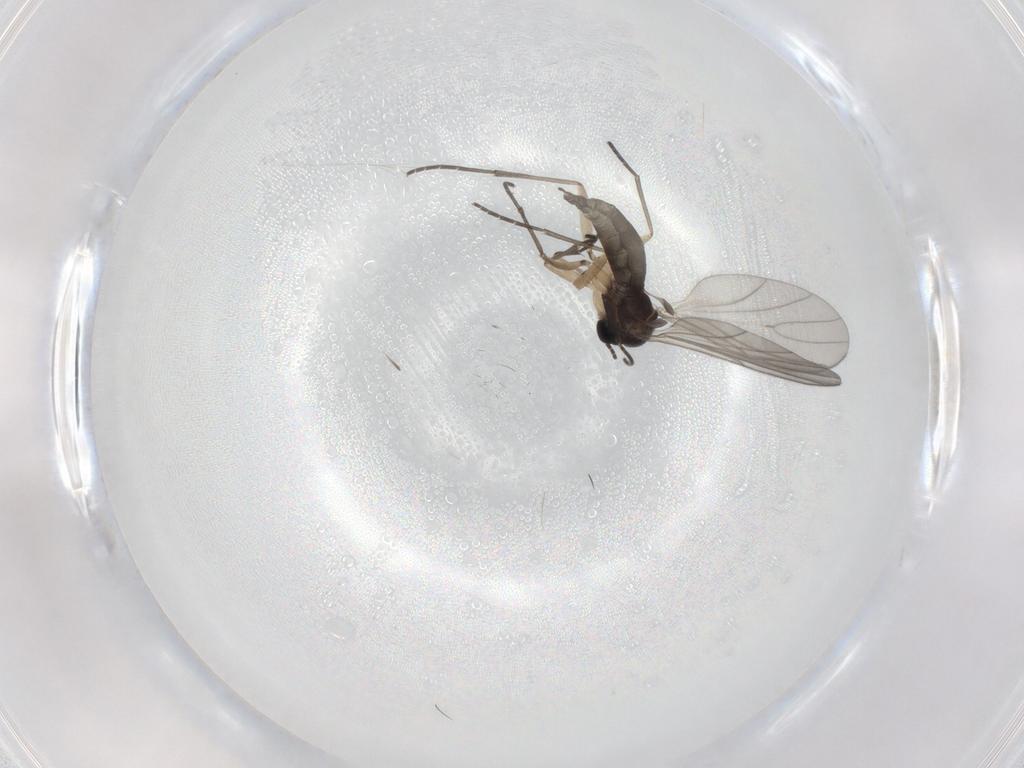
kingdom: Animalia
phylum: Arthropoda
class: Insecta
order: Diptera
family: Sciaridae
